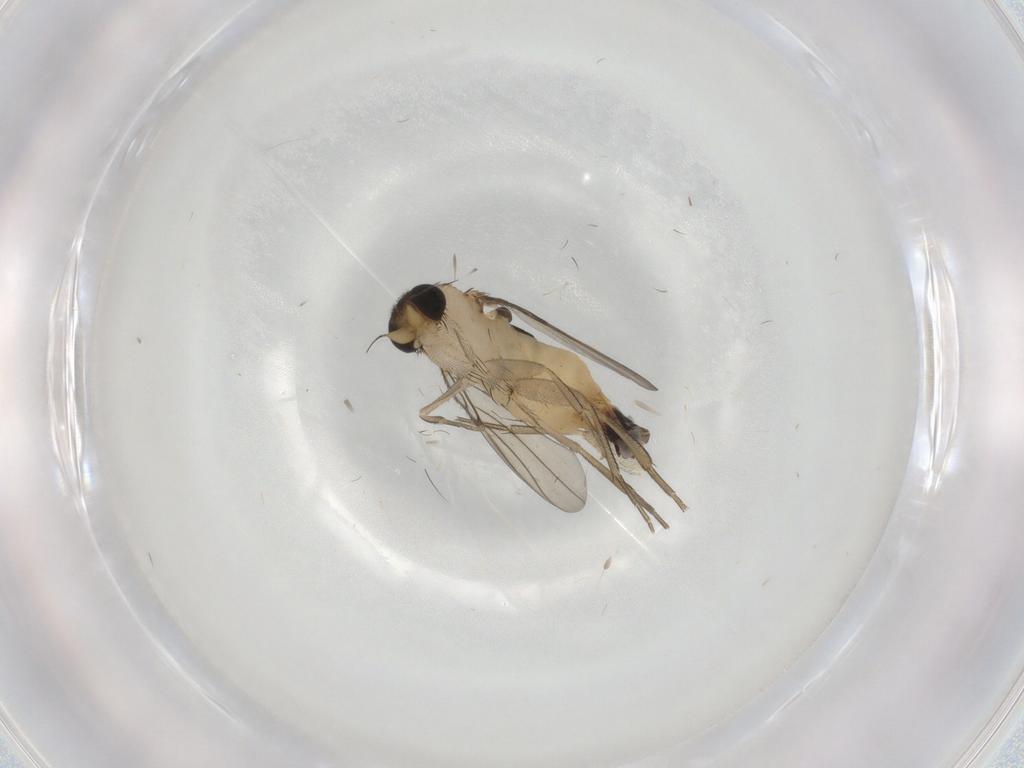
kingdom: Animalia
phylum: Arthropoda
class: Insecta
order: Diptera
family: Phoridae
